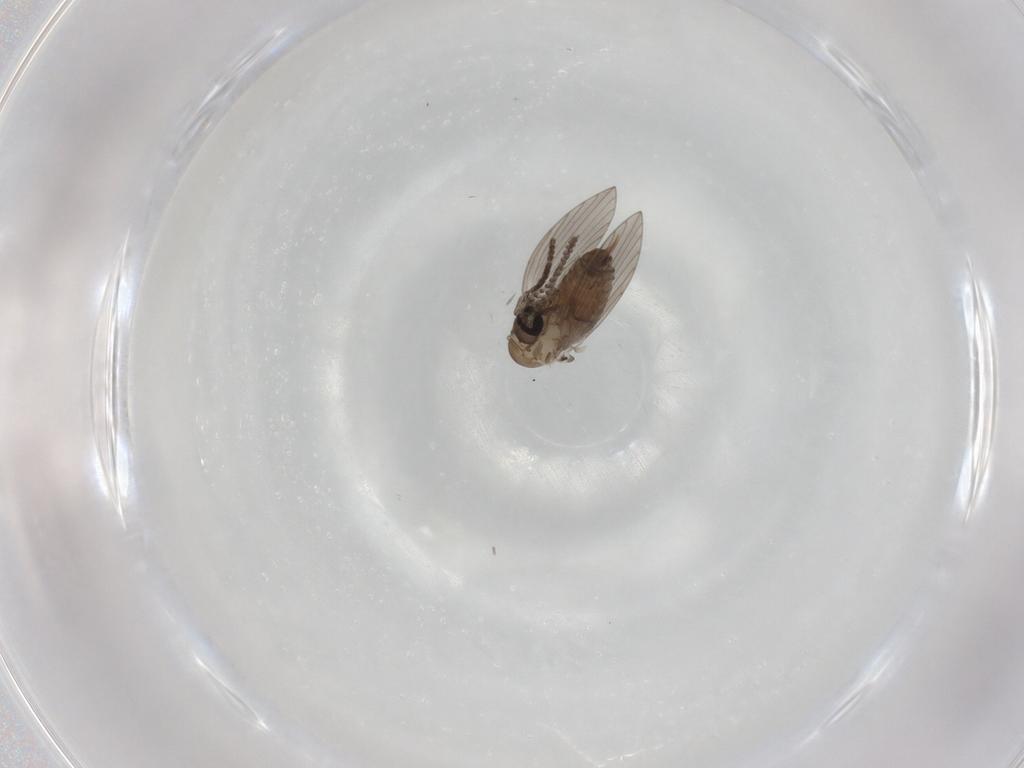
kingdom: Animalia
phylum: Arthropoda
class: Insecta
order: Diptera
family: Psychodidae
